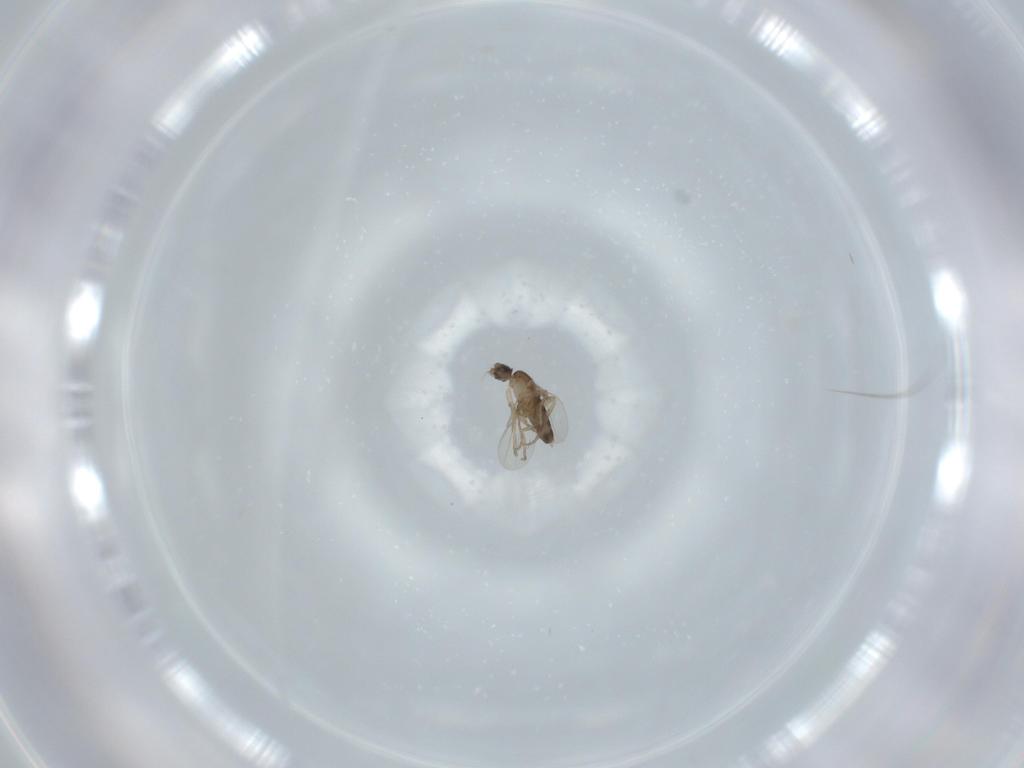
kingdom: Animalia
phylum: Arthropoda
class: Insecta
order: Diptera
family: Phoridae
